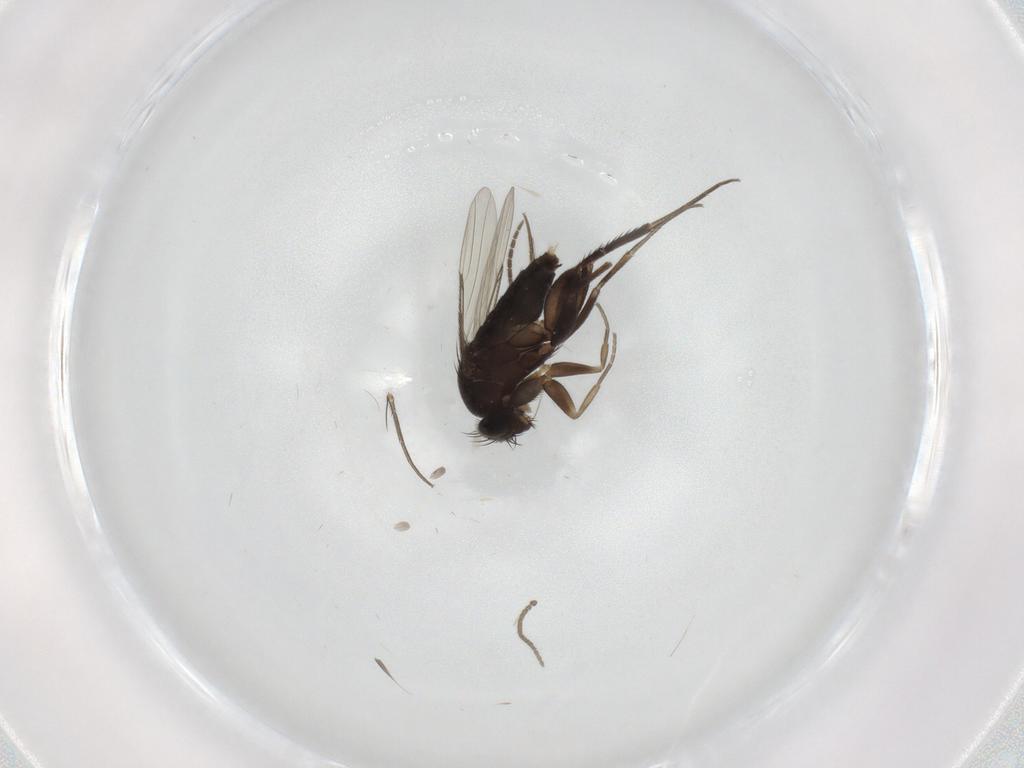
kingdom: Animalia
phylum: Arthropoda
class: Insecta
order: Diptera
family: Phoridae
